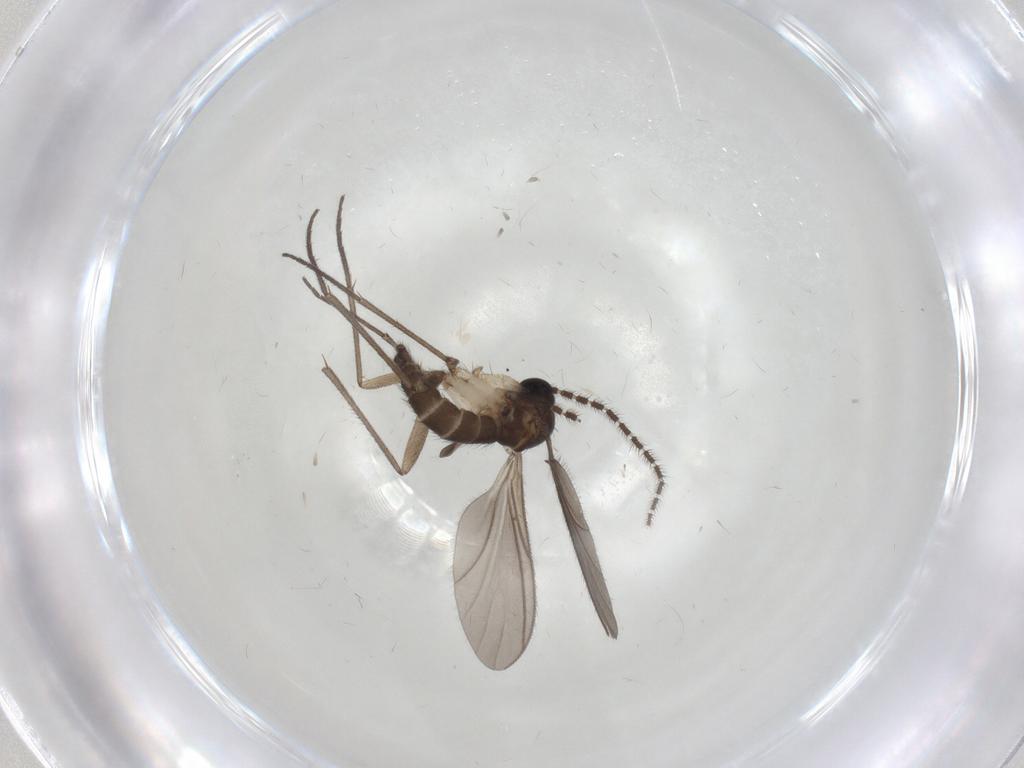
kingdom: Animalia
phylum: Arthropoda
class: Insecta
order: Diptera
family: Sciaridae
